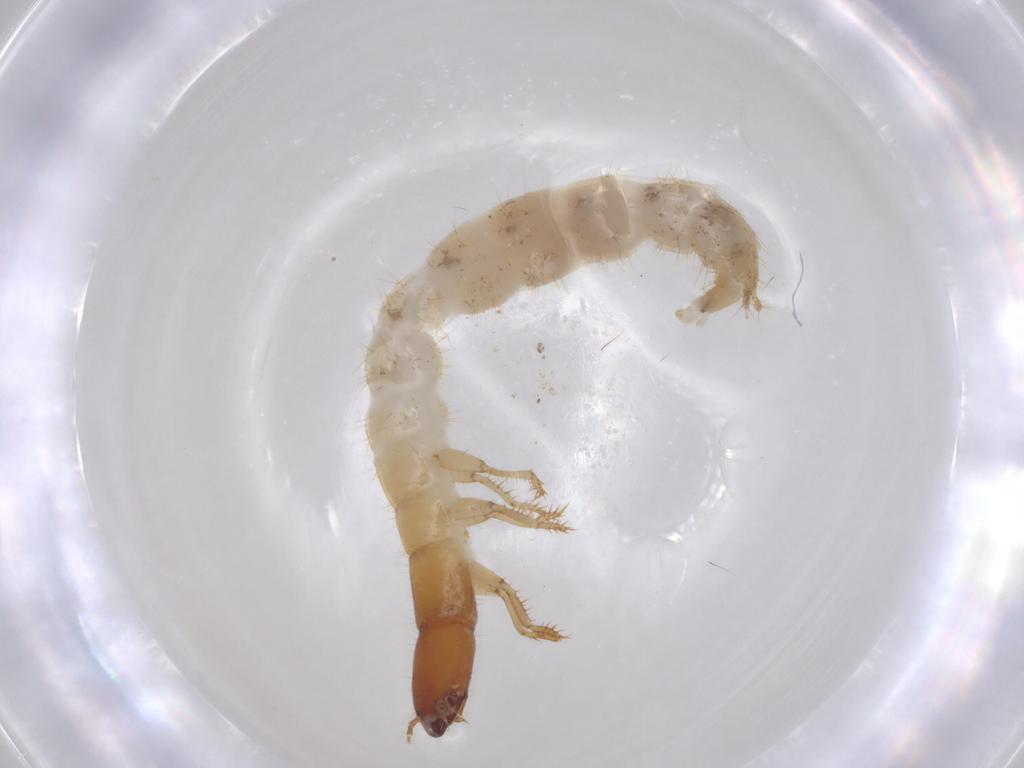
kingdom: Animalia
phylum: Arthropoda
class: Insecta
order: Coleoptera
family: Staphylinidae
